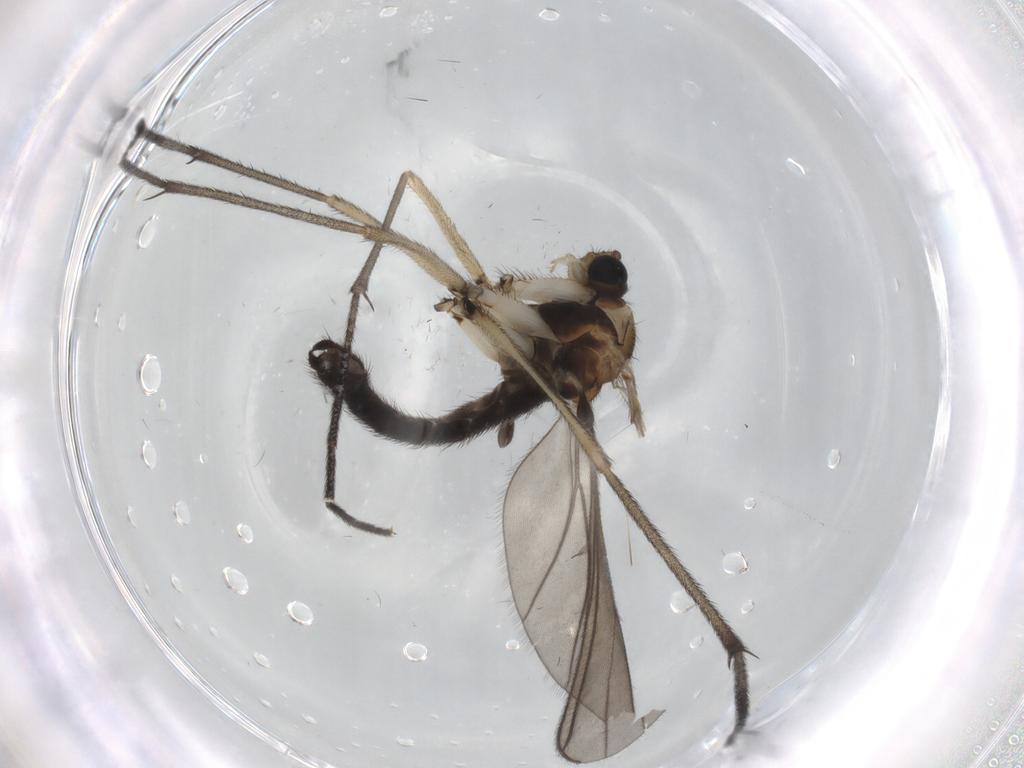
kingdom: Animalia
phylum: Arthropoda
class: Insecta
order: Diptera
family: Sciaridae
